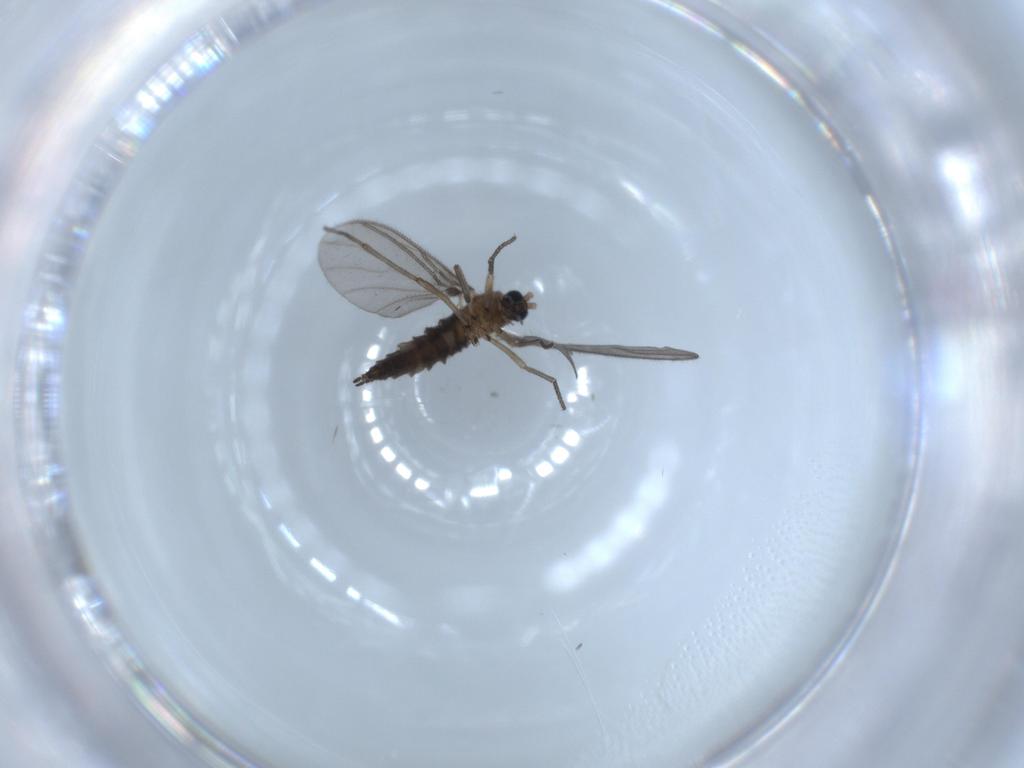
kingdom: Animalia
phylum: Arthropoda
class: Insecta
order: Diptera
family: Sciaridae
